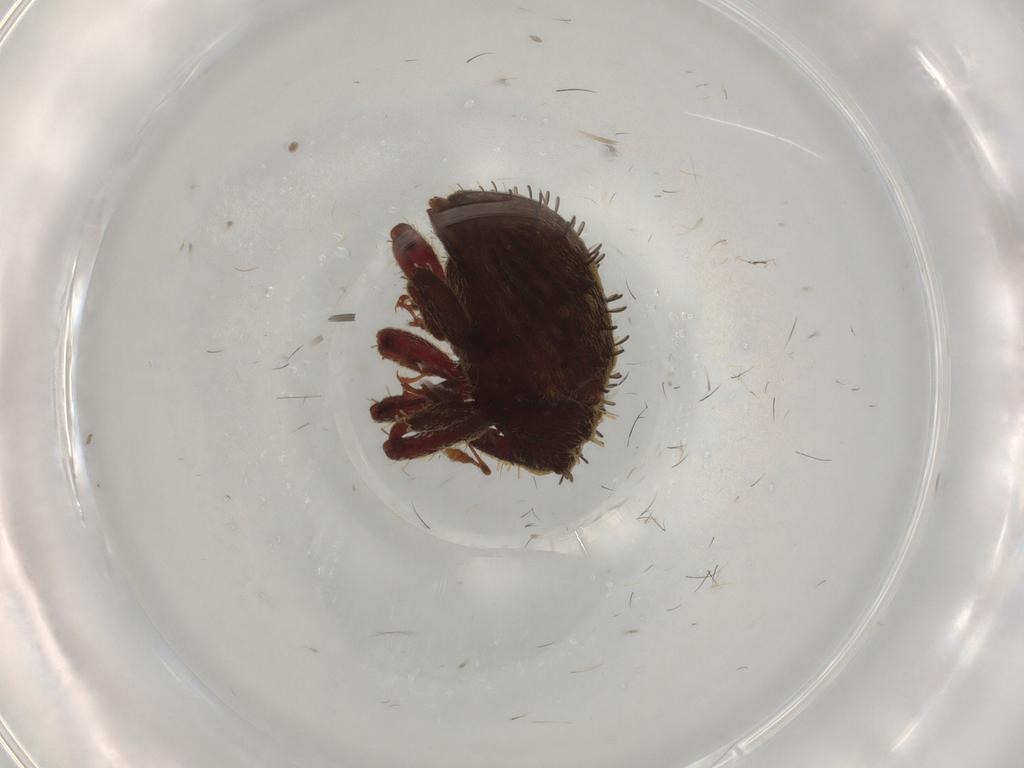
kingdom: Animalia
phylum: Arthropoda
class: Insecta
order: Coleoptera
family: Curculionidae
